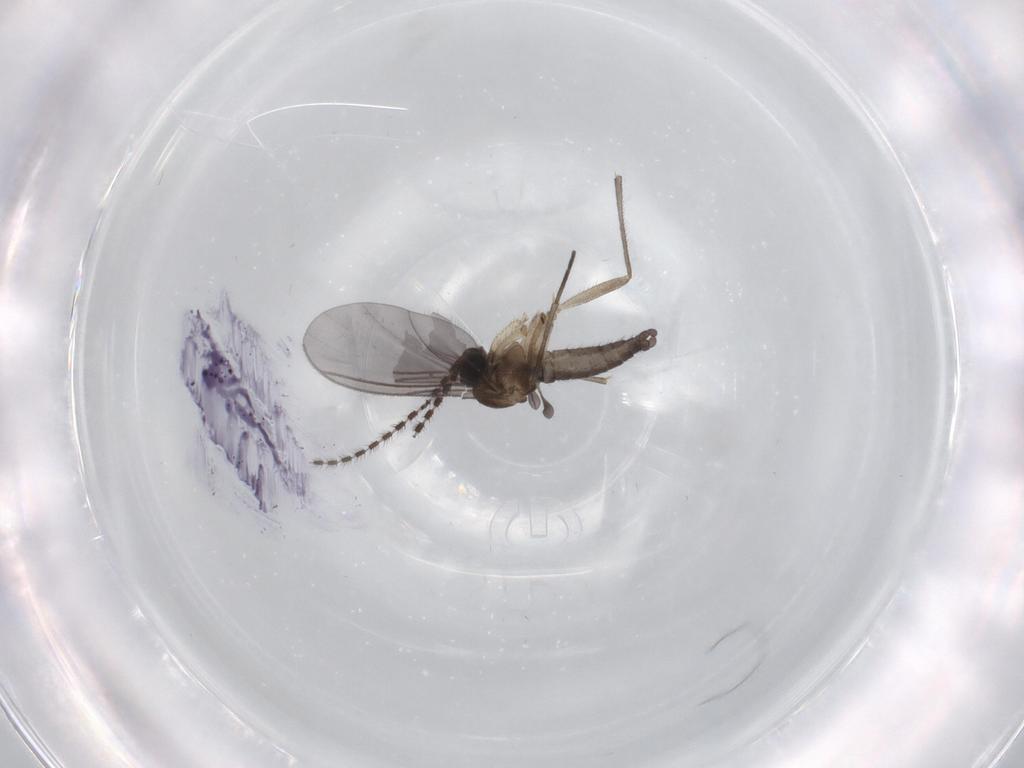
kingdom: Animalia
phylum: Arthropoda
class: Insecta
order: Diptera
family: Sciaridae
